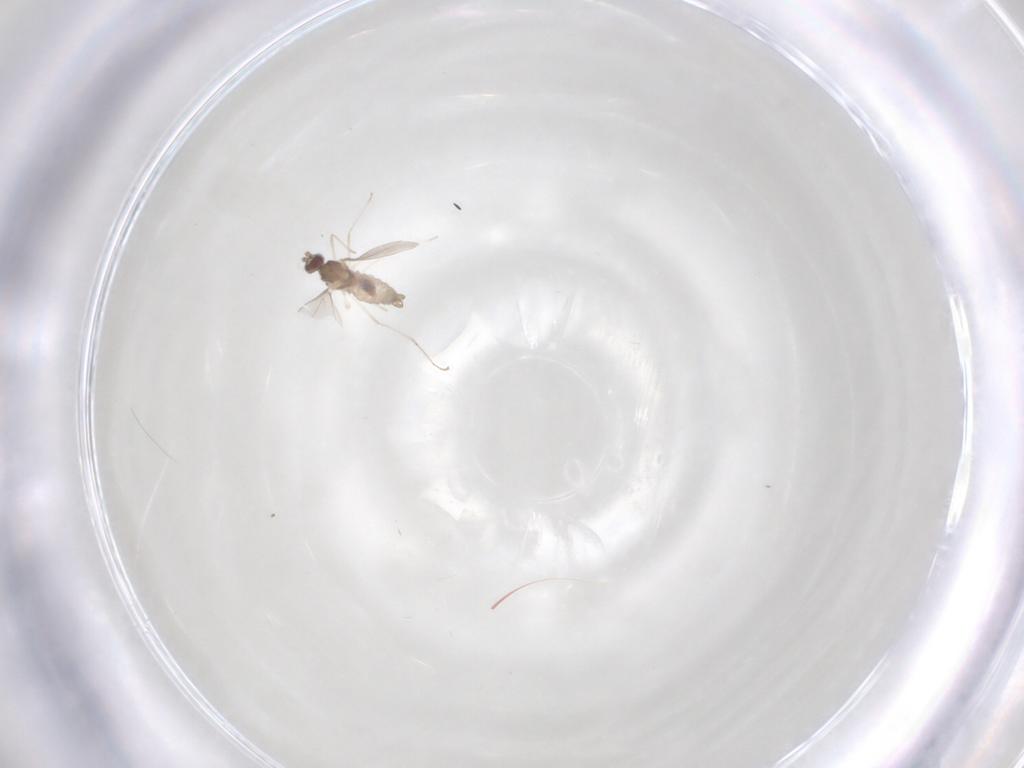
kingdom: Animalia
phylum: Arthropoda
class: Insecta
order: Diptera
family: Cecidomyiidae
